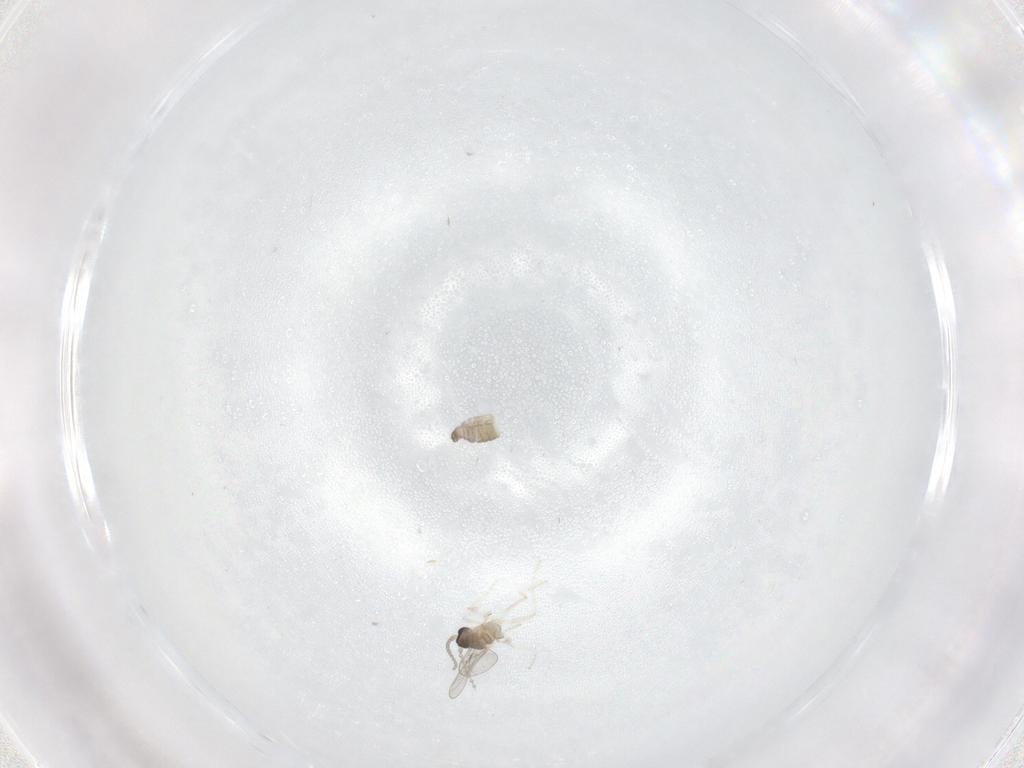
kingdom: Animalia
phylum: Arthropoda
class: Insecta
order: Diptera
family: Cecidomyiidae
